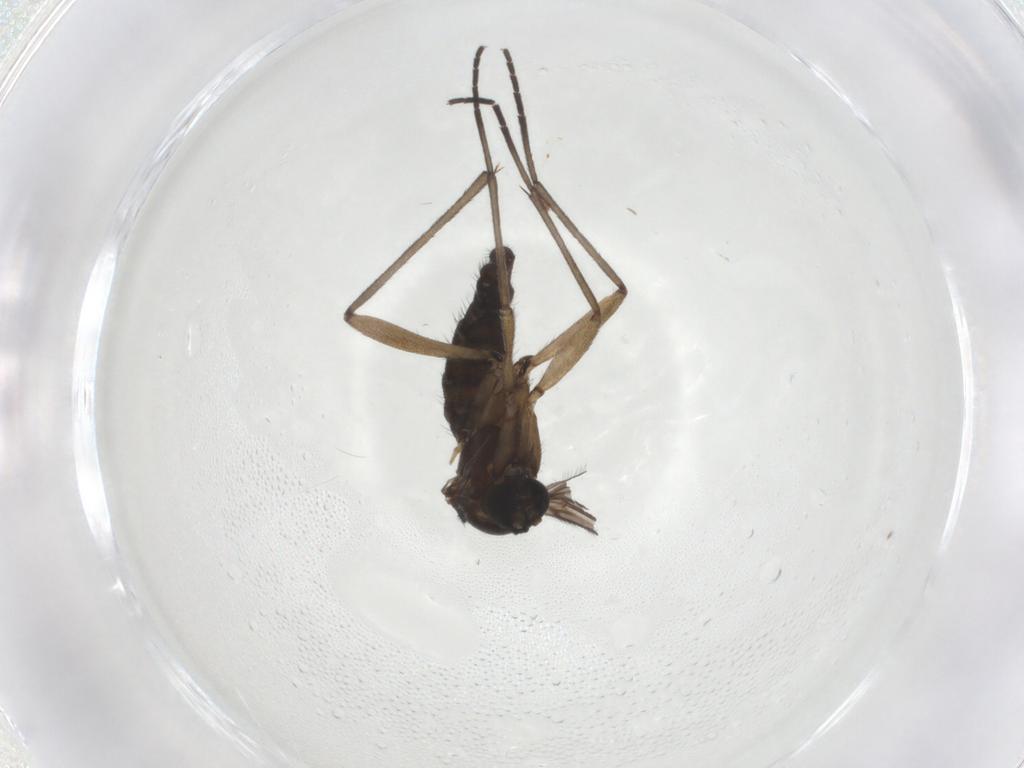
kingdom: Animalia
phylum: Arthropoda
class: Insecta
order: Diptera
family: Sciaridae
